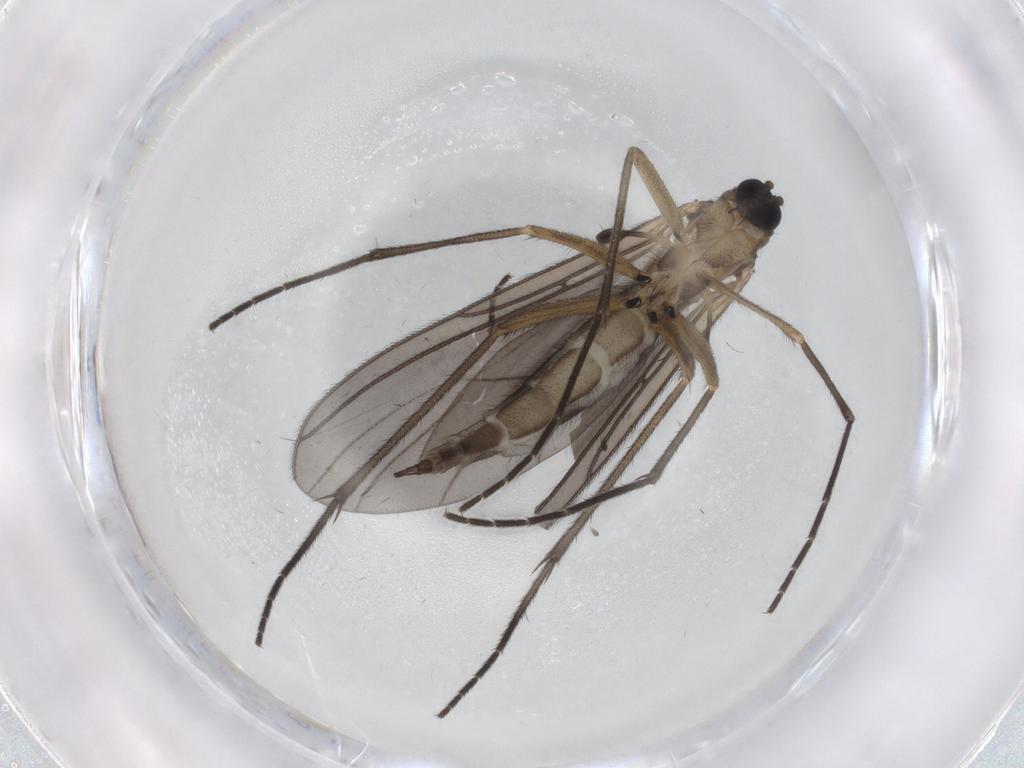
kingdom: Animalia
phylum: Arthropoda
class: Insecta
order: Diptera
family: Sciaridae
